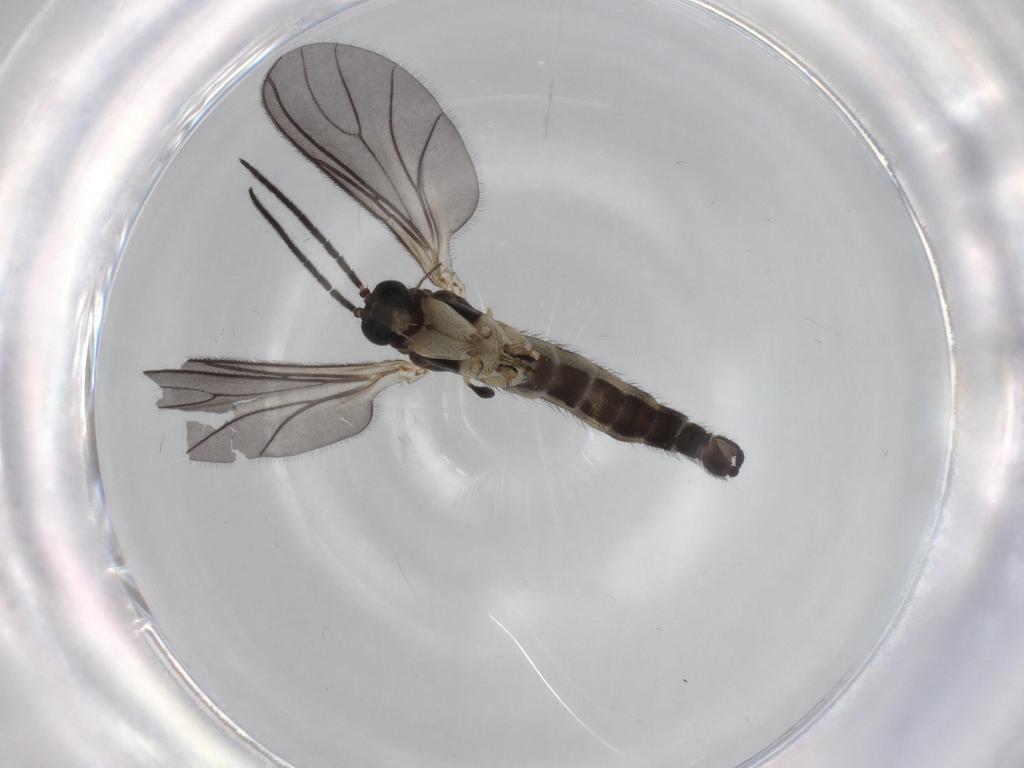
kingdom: Animalia
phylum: Arthropoda
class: Insecta
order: Diptera
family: Sciaridae
